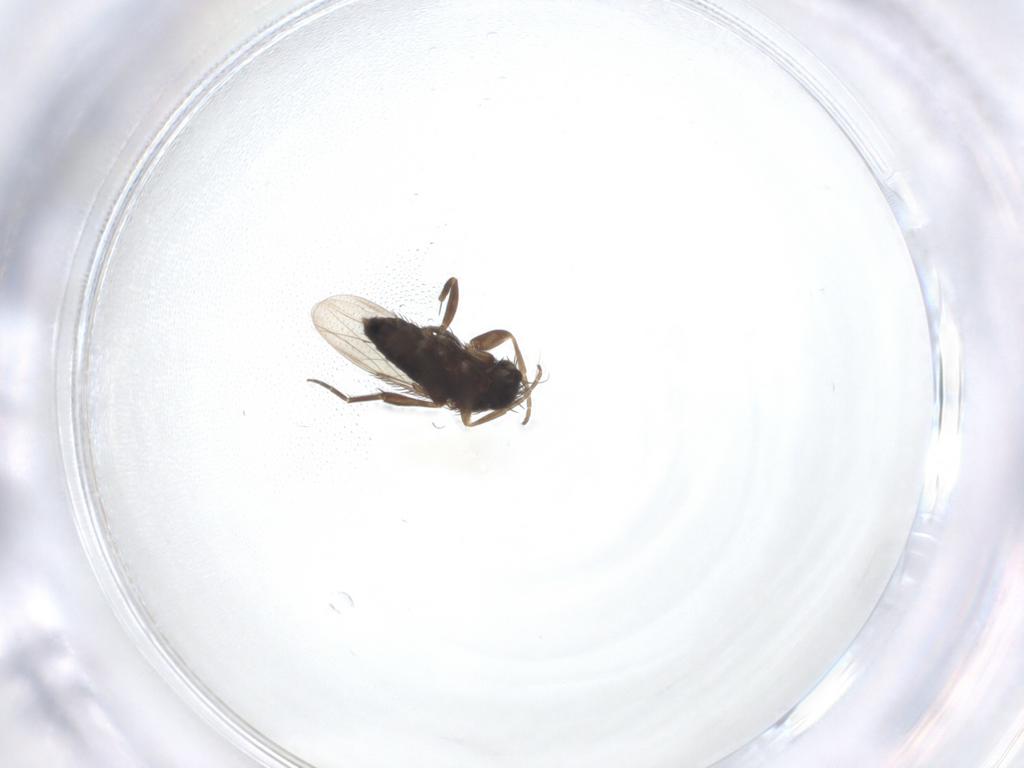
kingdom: Animalia
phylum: Arthropoda
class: Insecta
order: Diptera
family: Phoridae
